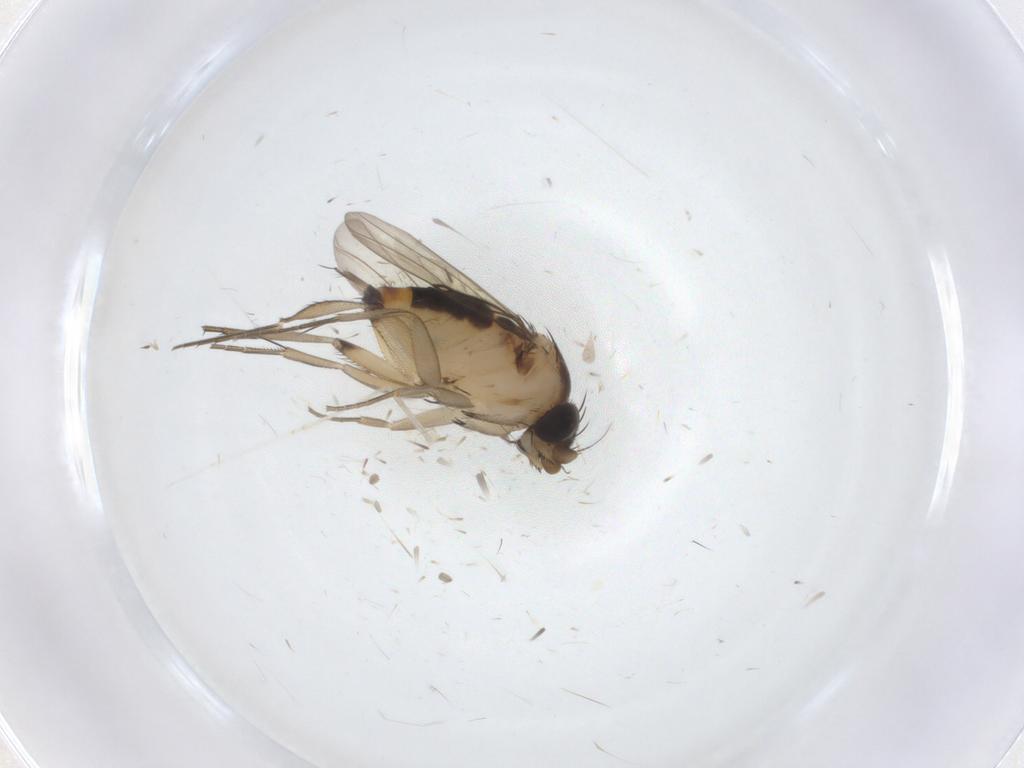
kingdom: Animalia
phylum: Arthropoda
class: Insecta
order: Diptera
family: Phoridae
